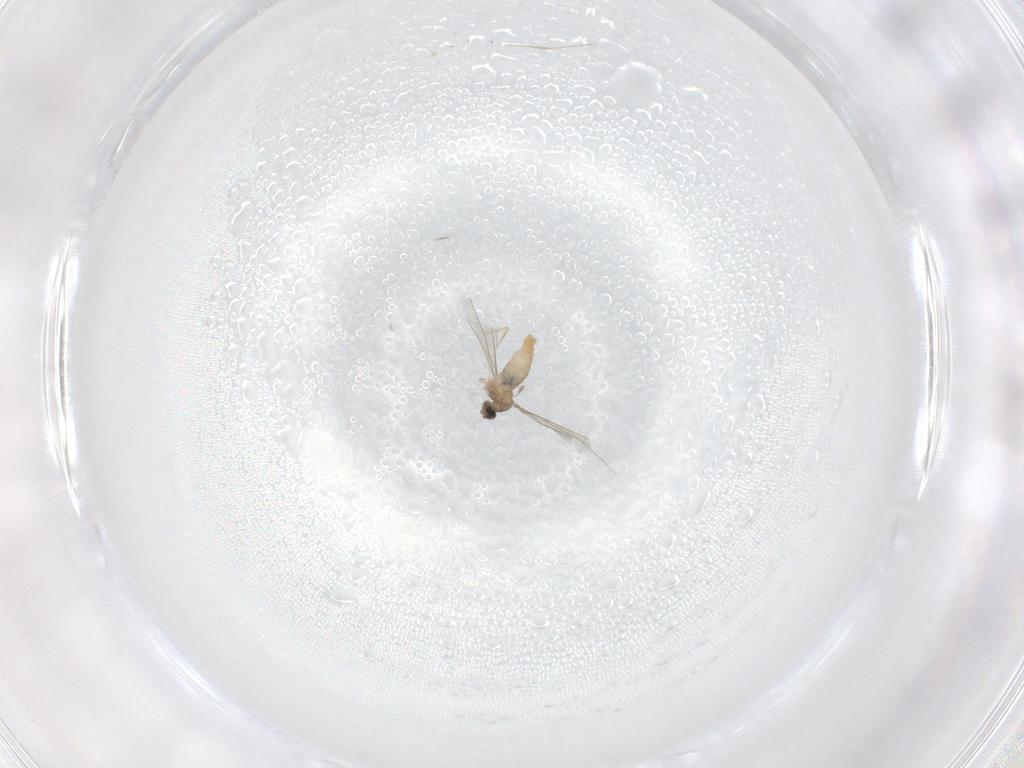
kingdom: Animalia
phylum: Arthropoda
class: Insecta
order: Diptera
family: Cecidomyiidae
